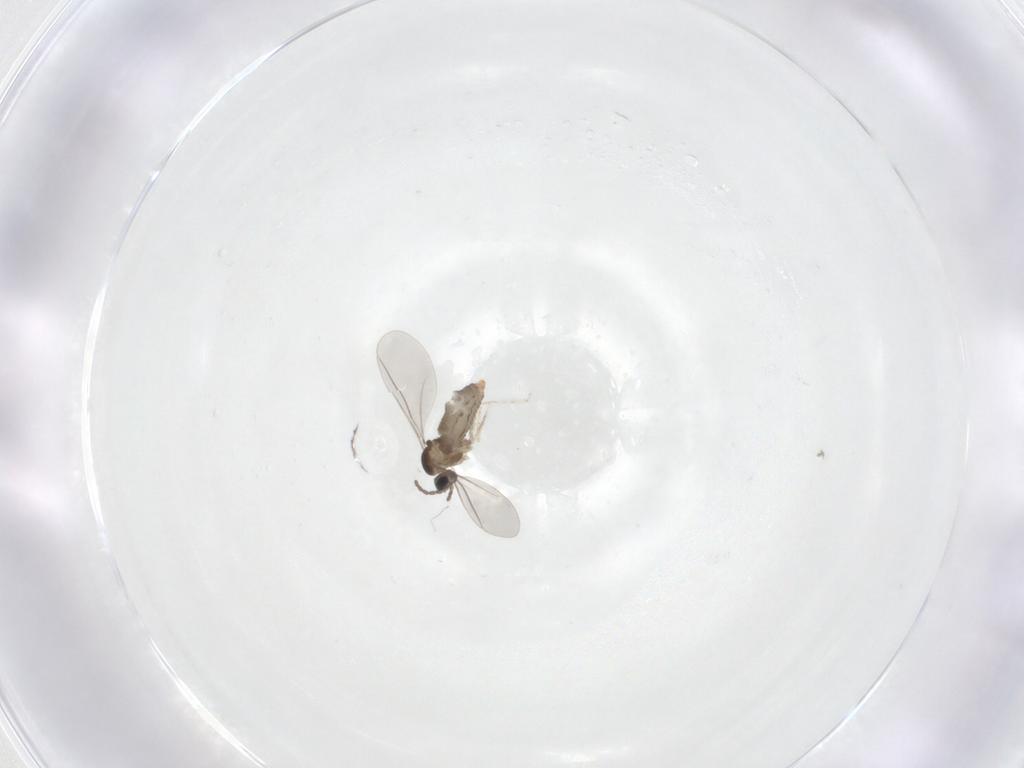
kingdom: Animalia
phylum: Arthropoda
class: Insecta
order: Diptera
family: Cecidomyiidae
